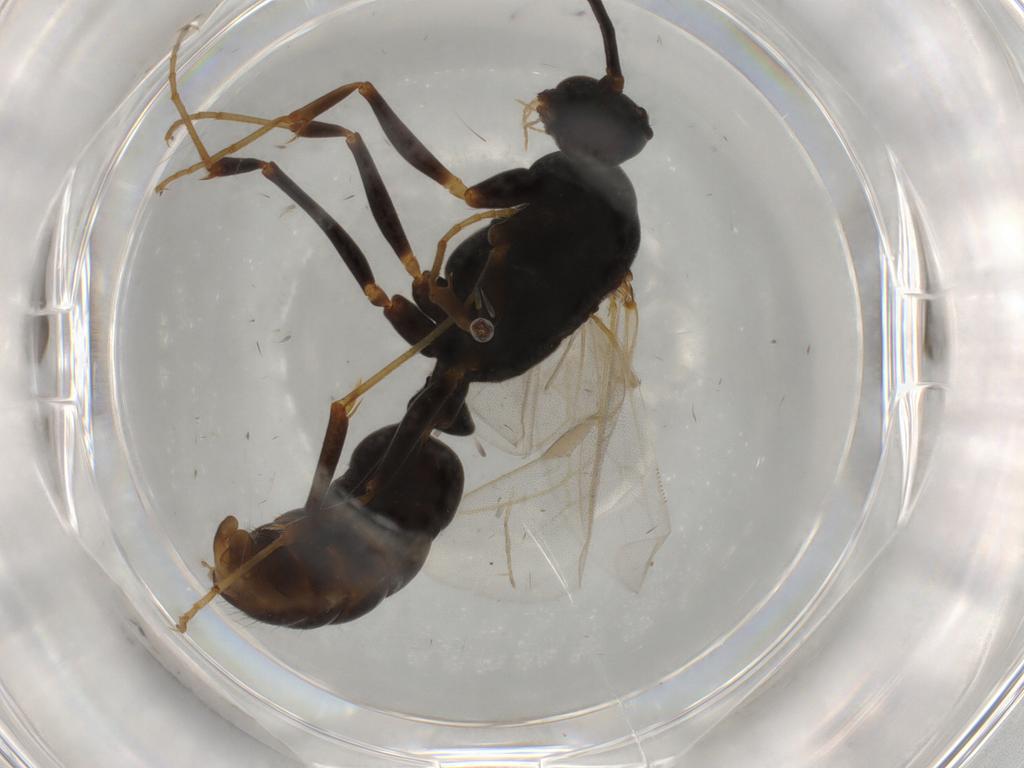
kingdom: Animalia
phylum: Arthropoda
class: Insecta
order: Hymenoptera
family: Formicidae
